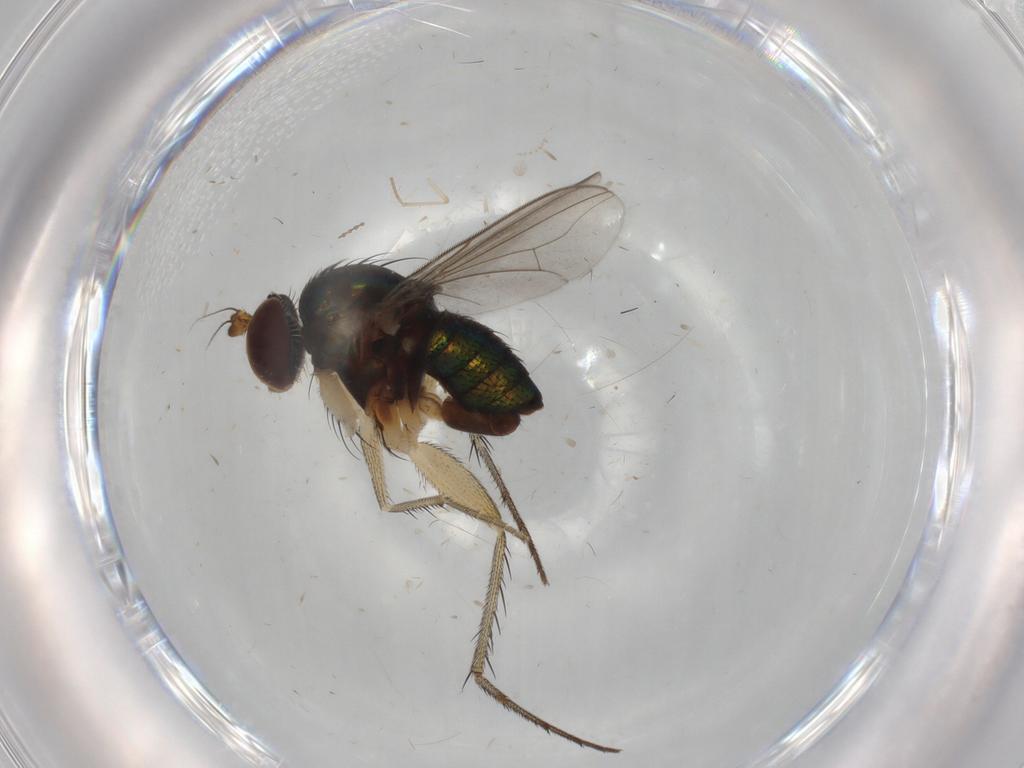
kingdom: Animalia
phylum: Arthropoda
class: Insecta
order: Diptera
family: Dolichopodidae
